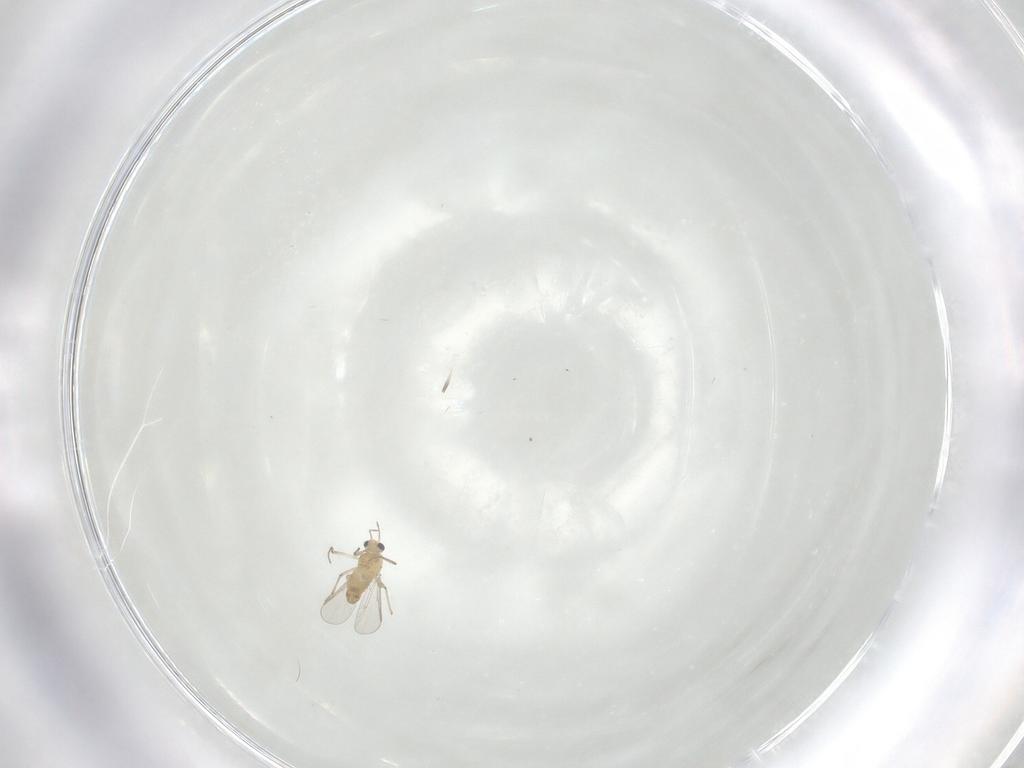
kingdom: Animalia
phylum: Arthropoda
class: Insecta
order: Diptera
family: Chironomidae
